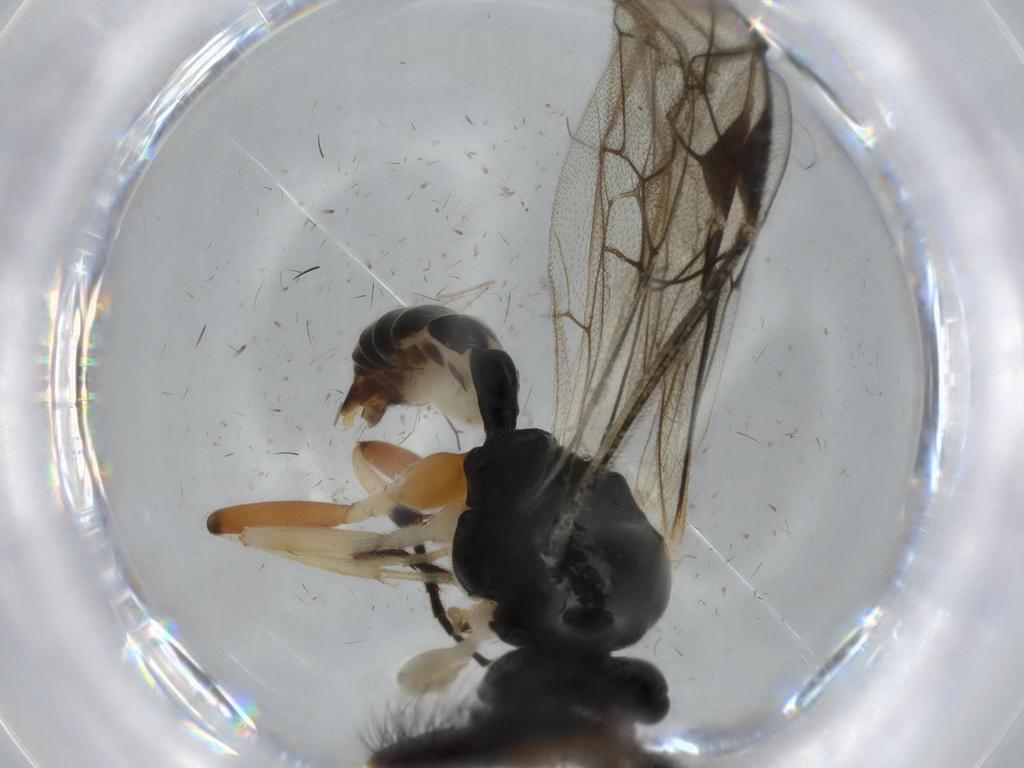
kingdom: Animalia
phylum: Arthropoda
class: Insecta
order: Hymenoptera
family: Ichneumonidae
